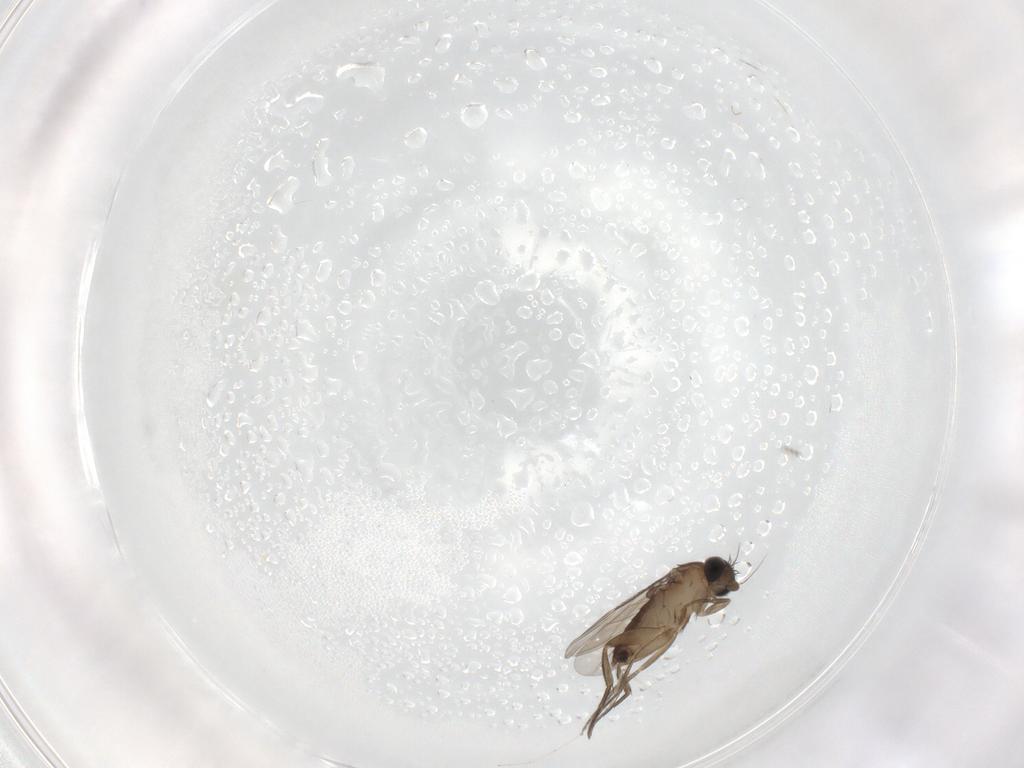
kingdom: Animalia
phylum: Arthropoda
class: Insecta
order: Diptera
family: Phoridae
